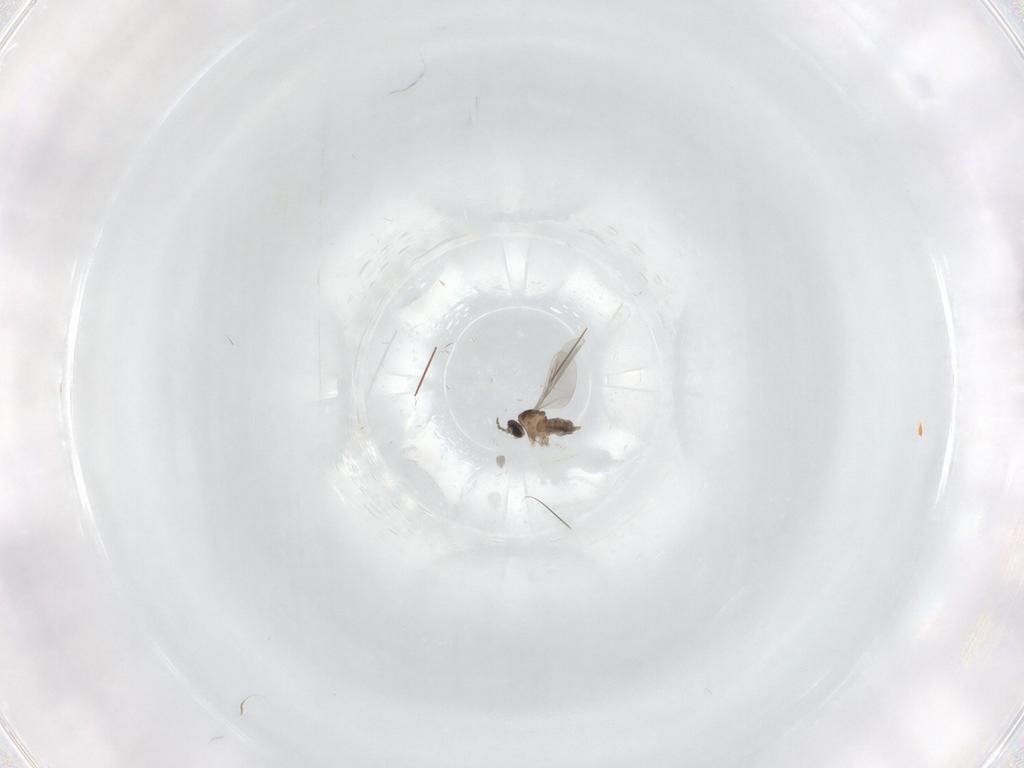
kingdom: Animalia
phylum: Arthropoda
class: Insecta
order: Diptera
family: Limoniidae
